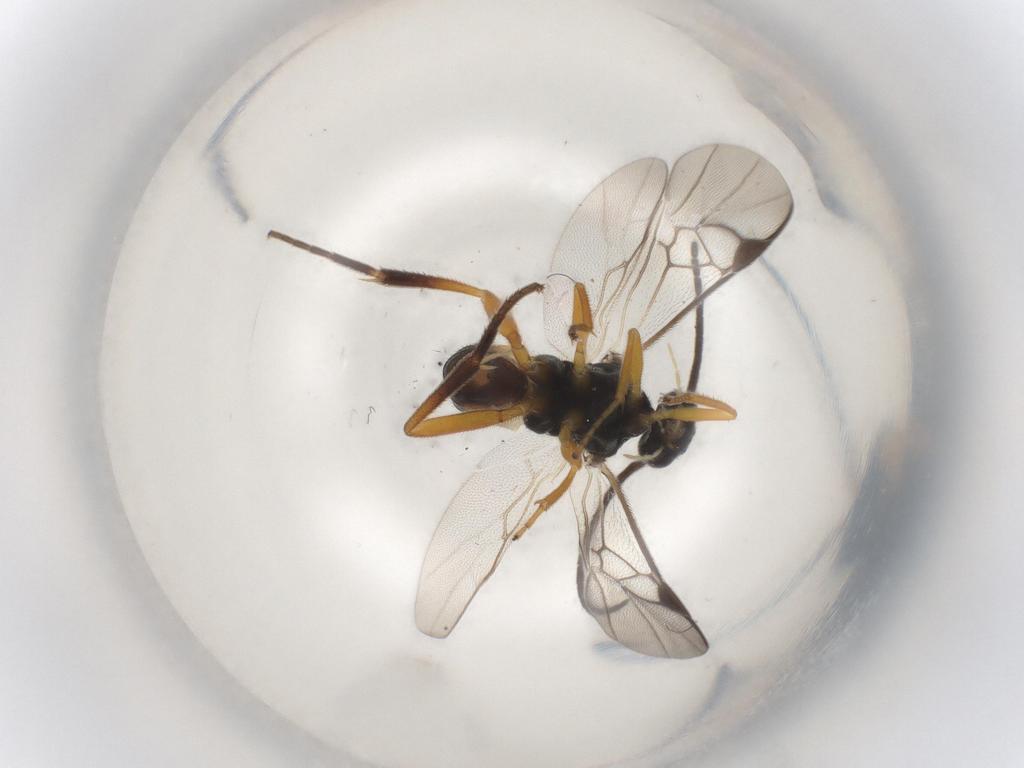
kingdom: Animalia
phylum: Arthropoda
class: Insecta
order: Hymenoptera
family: Braconidae
